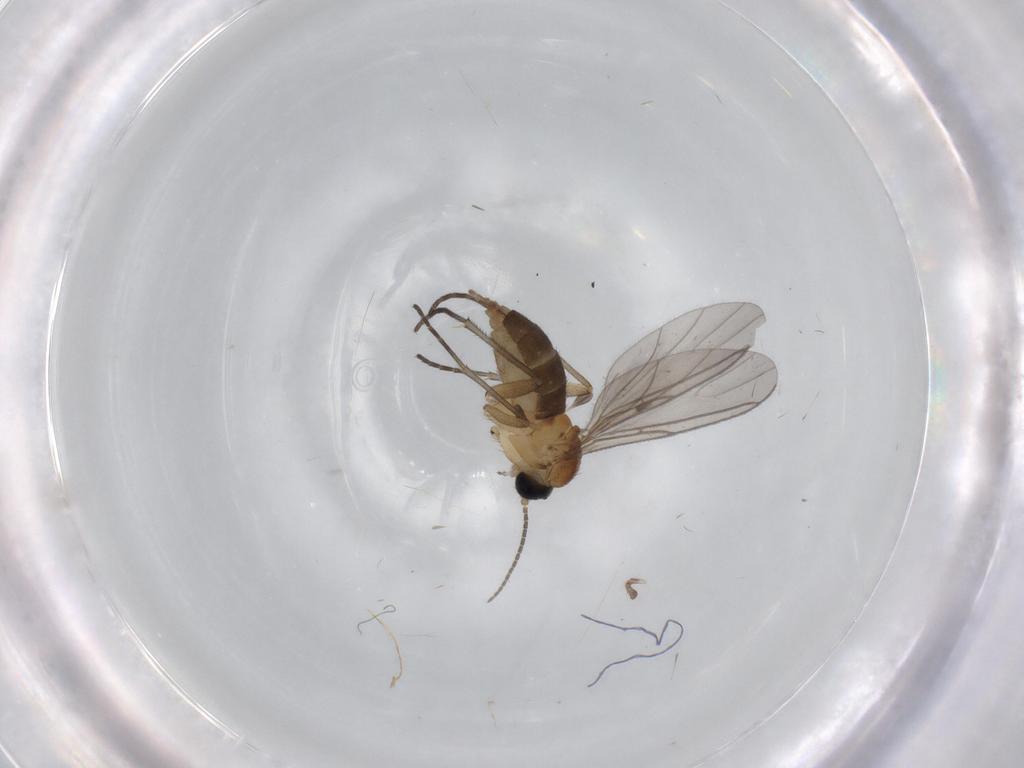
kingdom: Animalia
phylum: Arthropoda
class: Insecta
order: Diptera
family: Sciaridae
